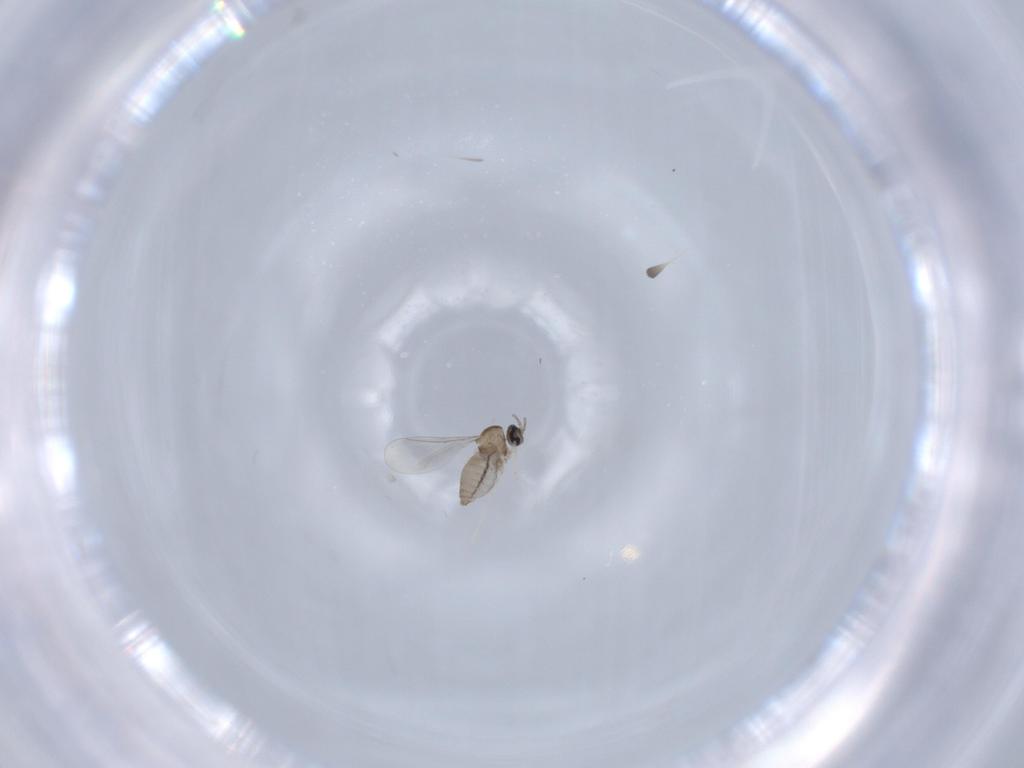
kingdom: Animalia
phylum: Arthropoda
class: Insecta
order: Diptera
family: Cecidomyiidae
